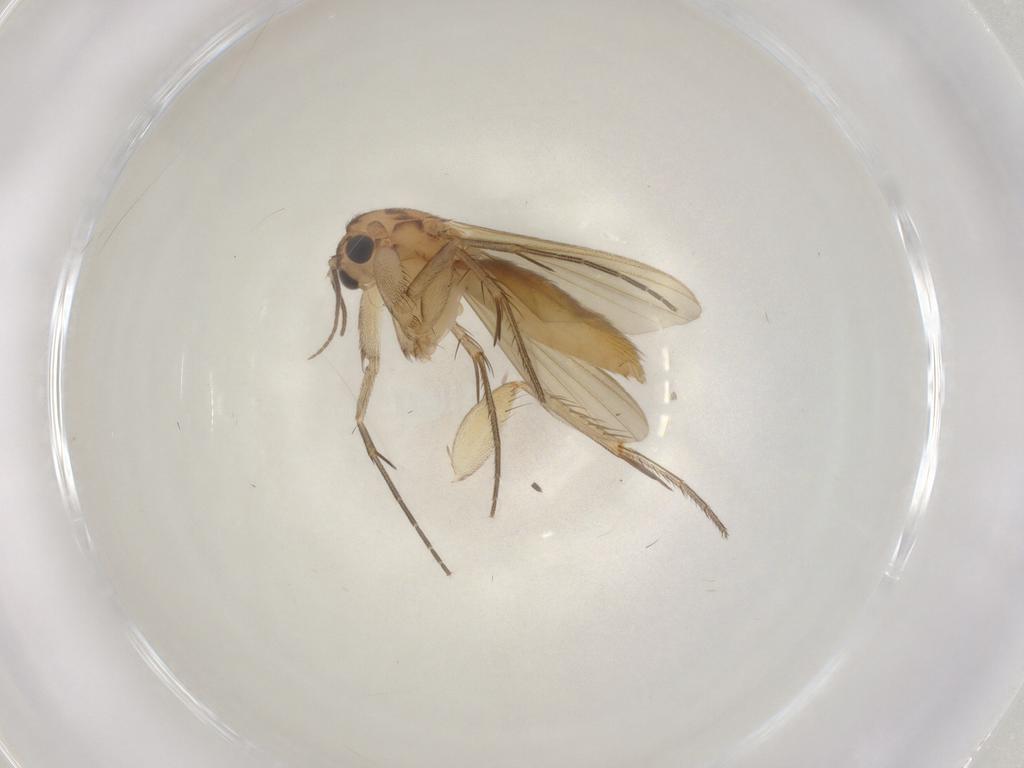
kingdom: Animalia
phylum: Arthropoda
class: Insecta
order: Diptera
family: Mycetophilidae
